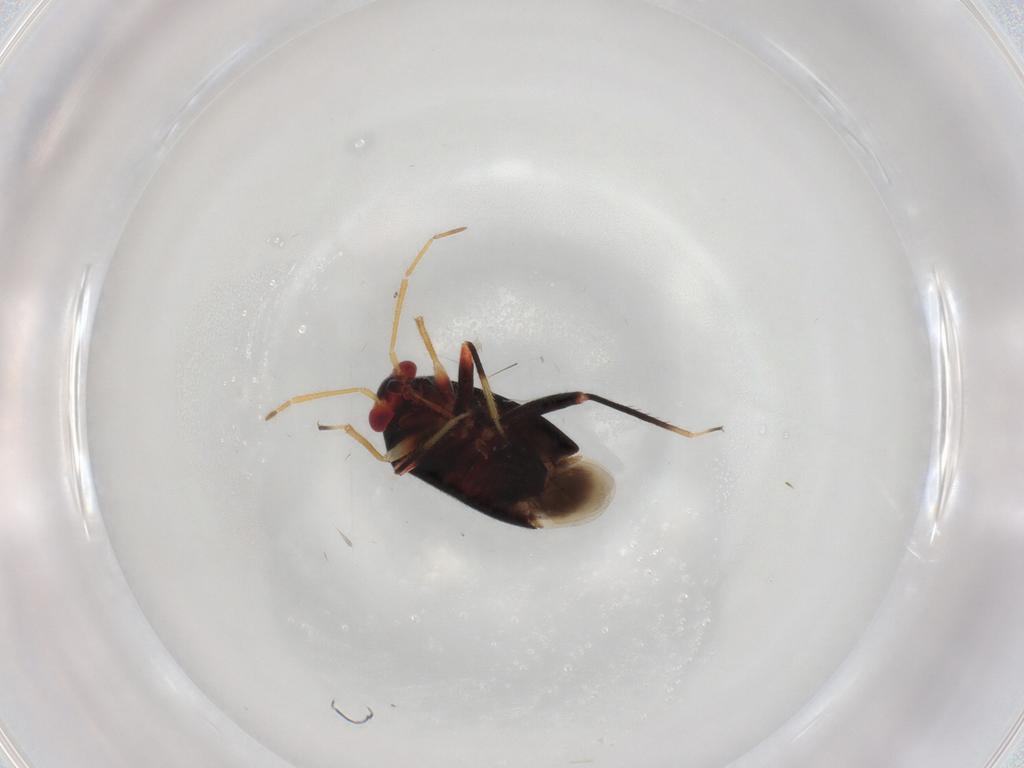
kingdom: Animalia
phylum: Arthropoda
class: Insecta
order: Hemiptera
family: Miridae
